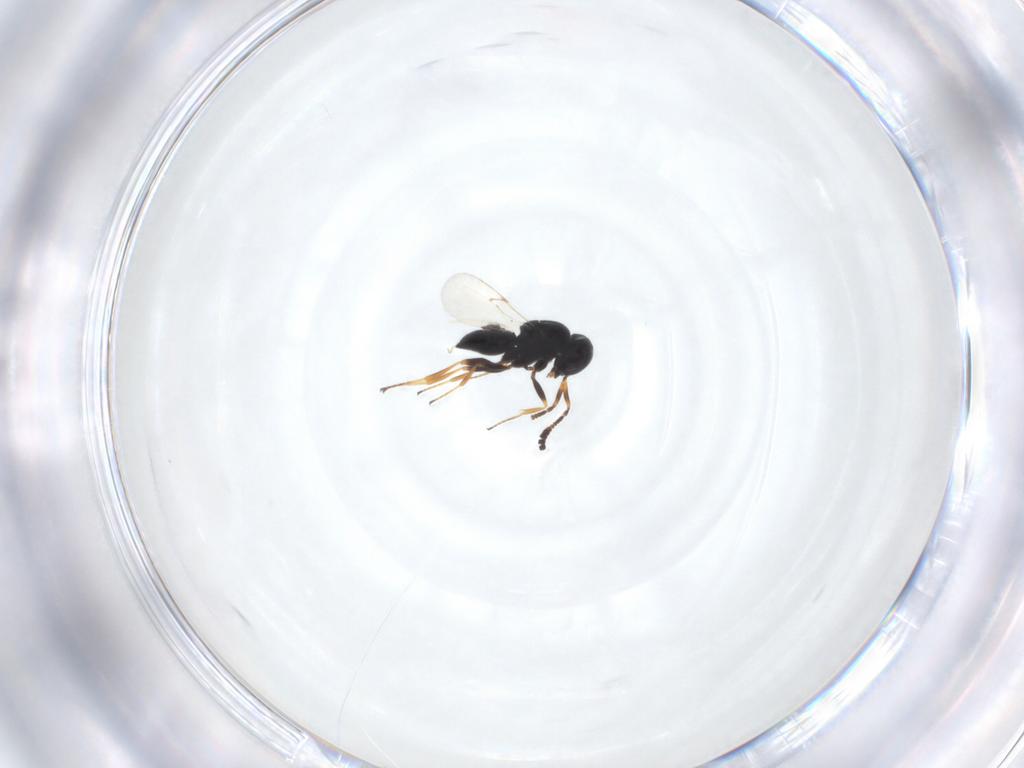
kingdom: Animalia
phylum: Arthropoda
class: Insecta
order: Hymenoptera
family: Scelionidae
